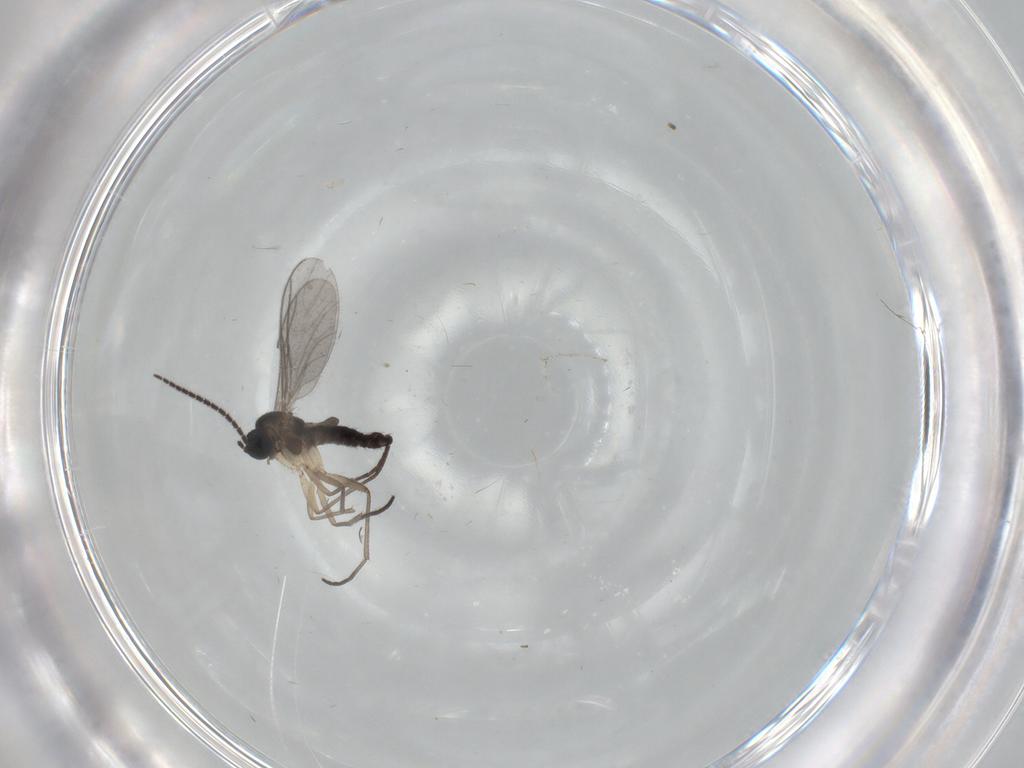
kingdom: Animalia
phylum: Arthropoda
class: Insecta
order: Diptera
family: Sciaridae
